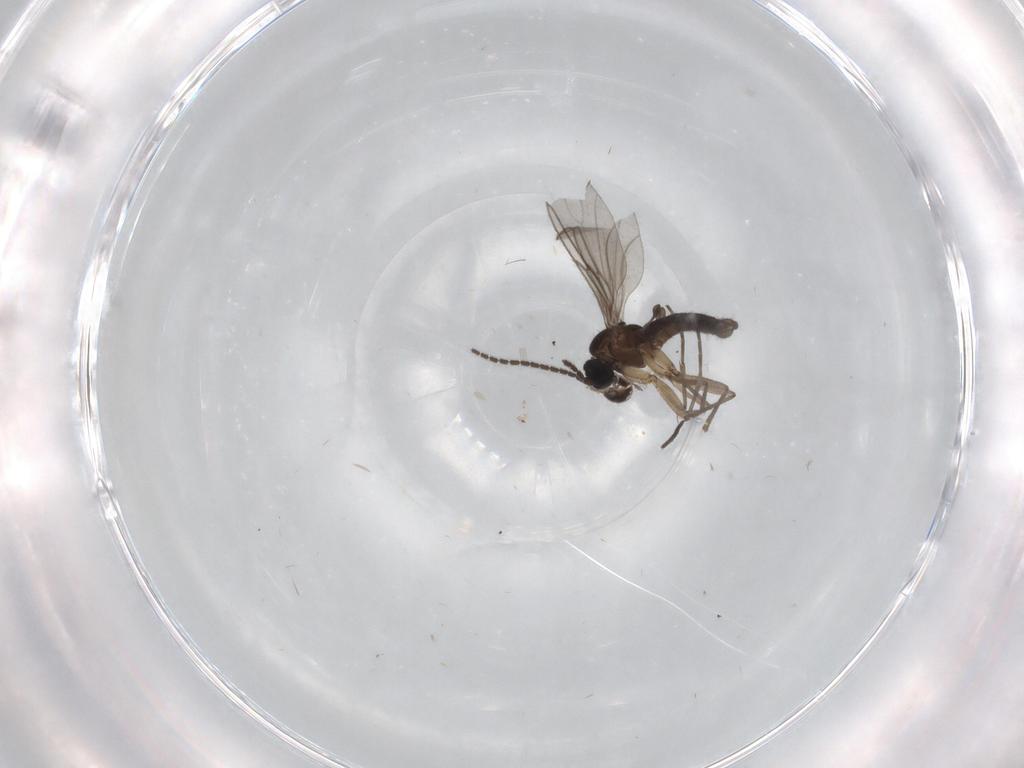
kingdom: Animalia
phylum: Arthropoda
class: Insecta
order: Diptera
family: Sciaridae
